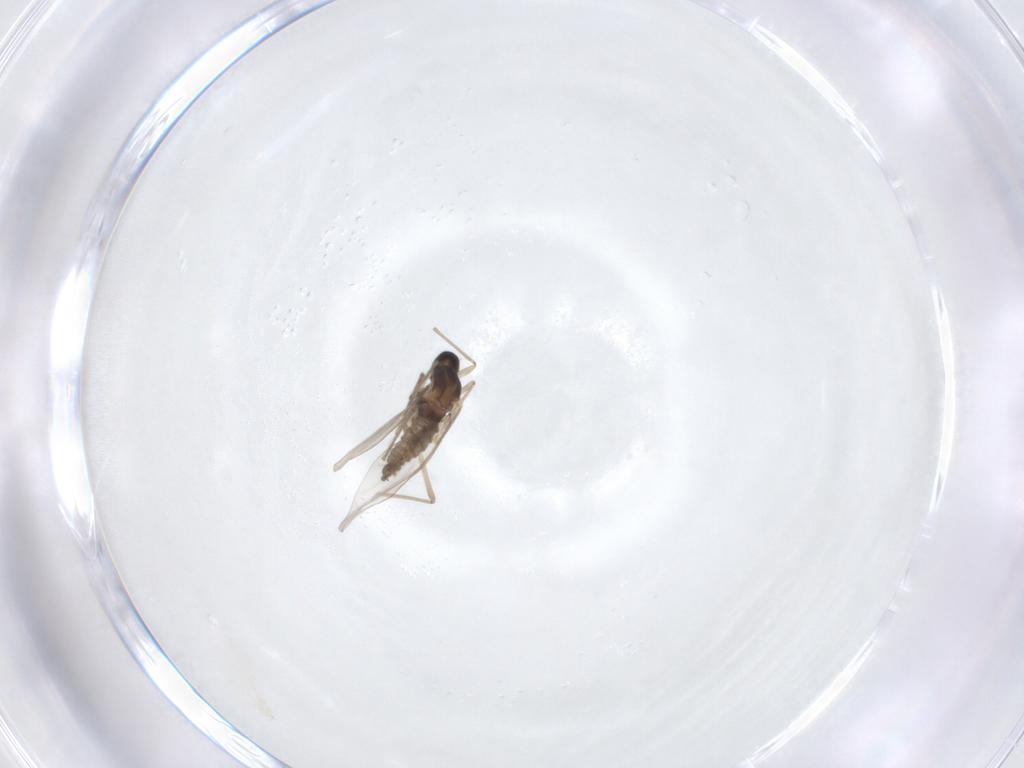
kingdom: Animalia
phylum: Arthropoda
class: Insecta
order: Diptera
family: Cecidomyiidae
